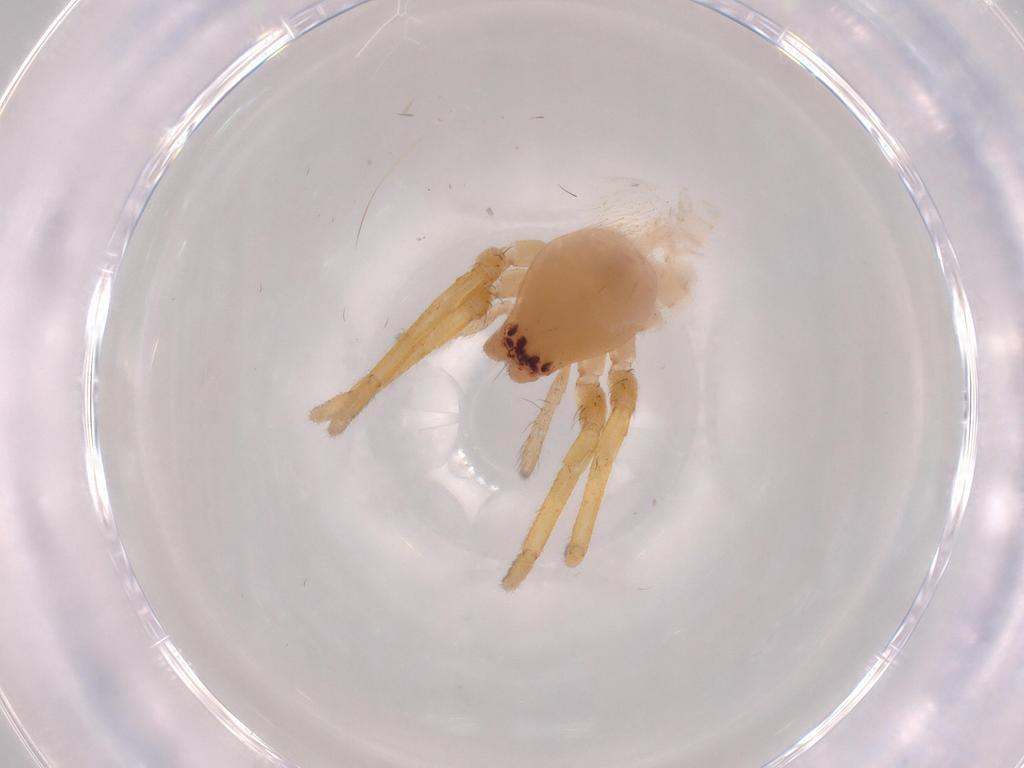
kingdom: Animalia
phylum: Arthropoda
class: Arachnida
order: Araneae
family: Clubionidae
